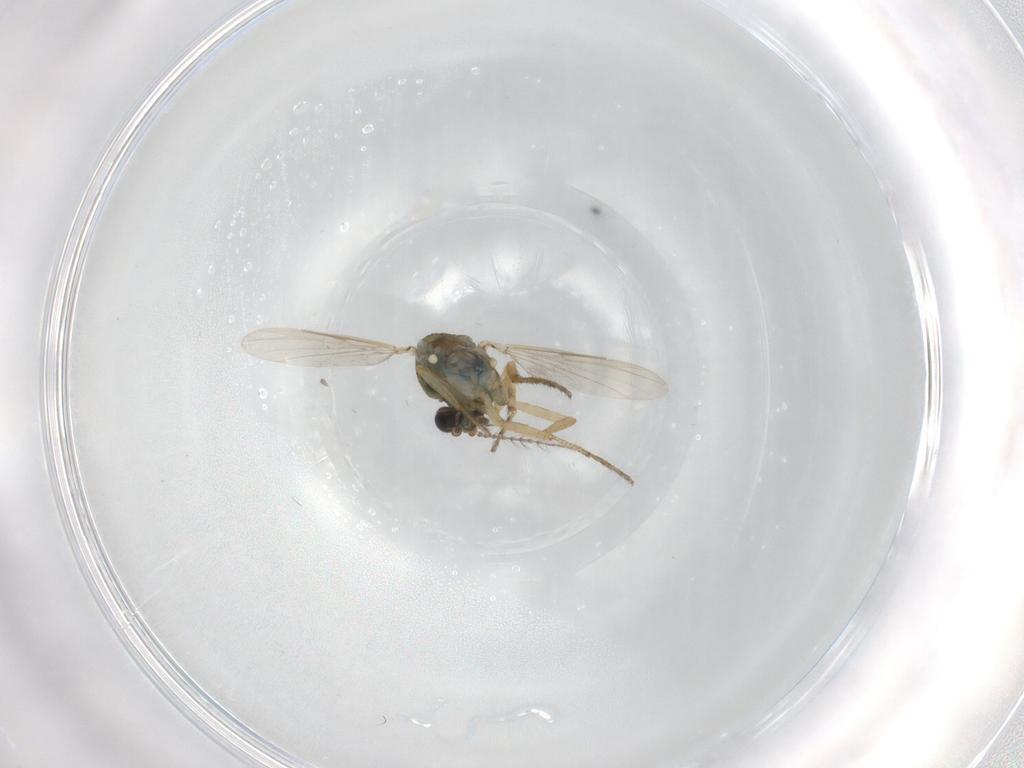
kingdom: Animalia
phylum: Arthropoda
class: Insecta
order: Diptera
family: Ceratopogonidae
